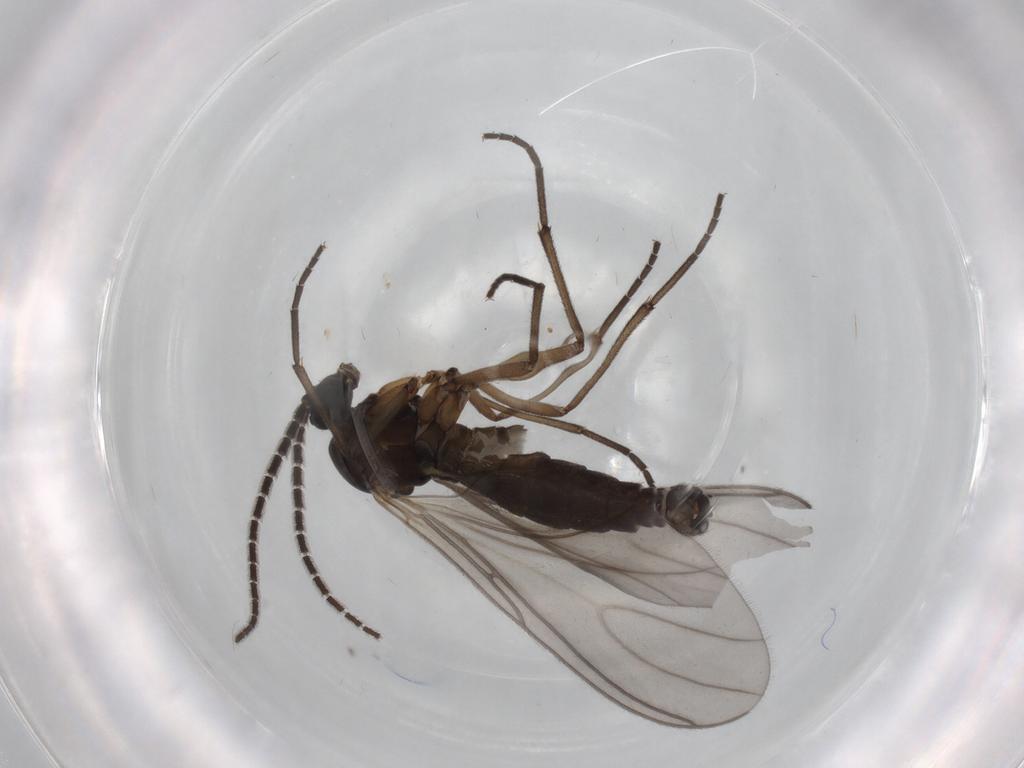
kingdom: Animalia
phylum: Arthropoda
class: Insecta
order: Diptera
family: Sciaridae
